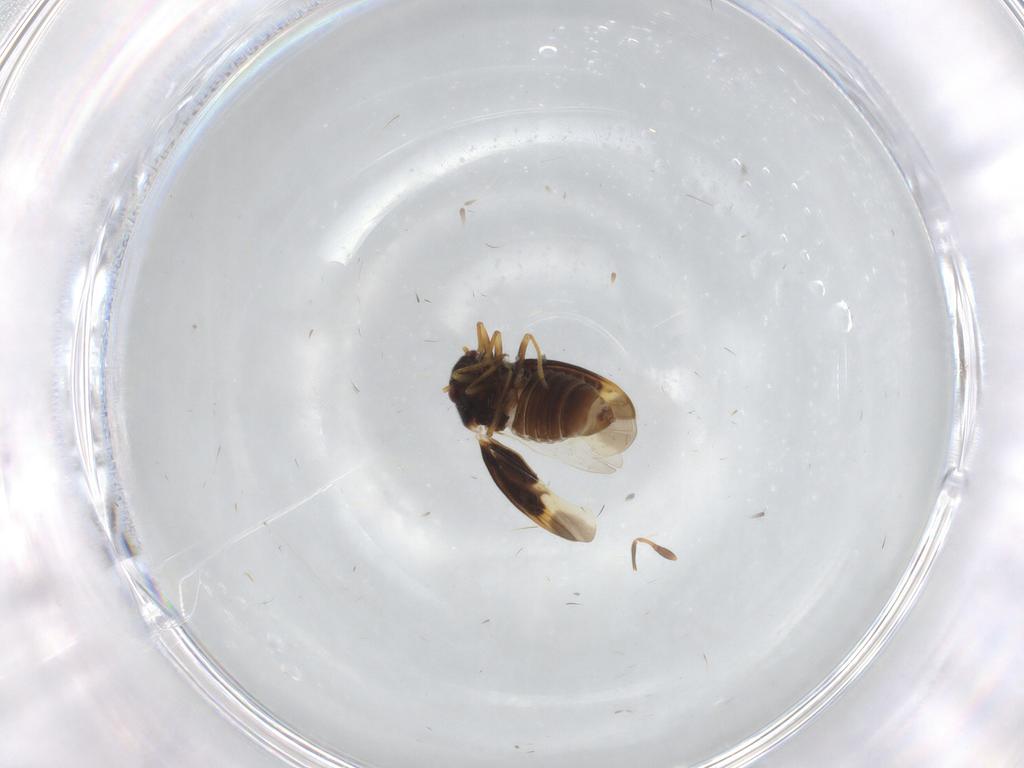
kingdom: Animalia
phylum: Arthropoda
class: Insecta
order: Hemiptera
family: Schizopteridae
